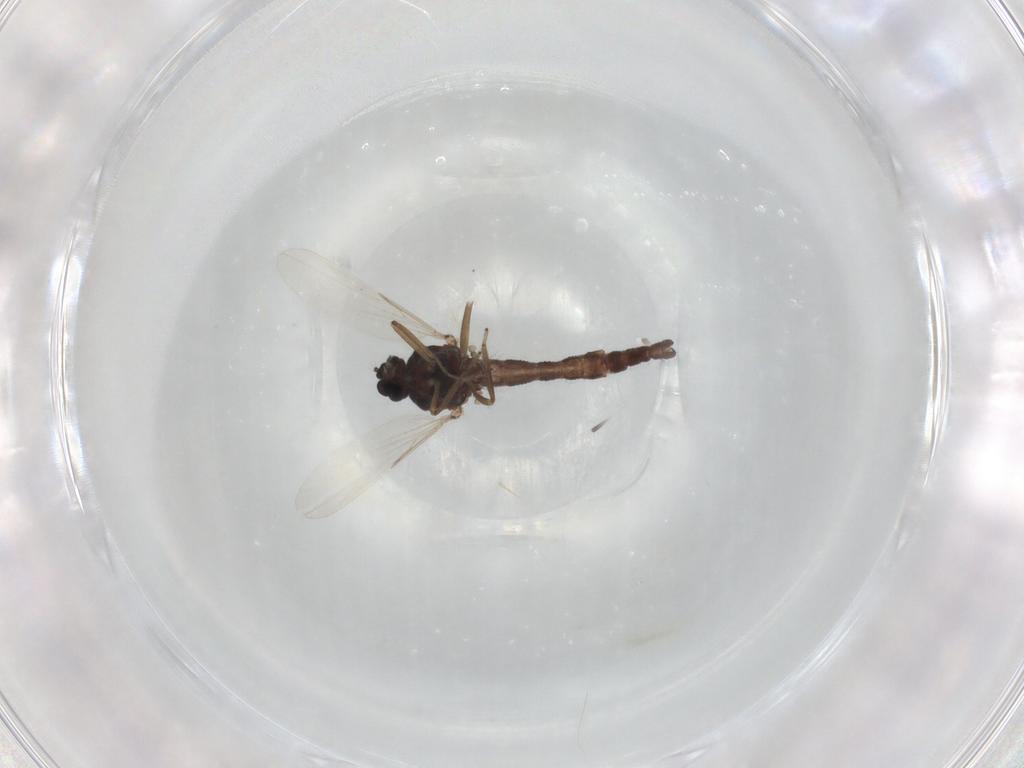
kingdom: Animalia
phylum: Arthropoda
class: Insecta
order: Diptera
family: Ceratopogonidae
